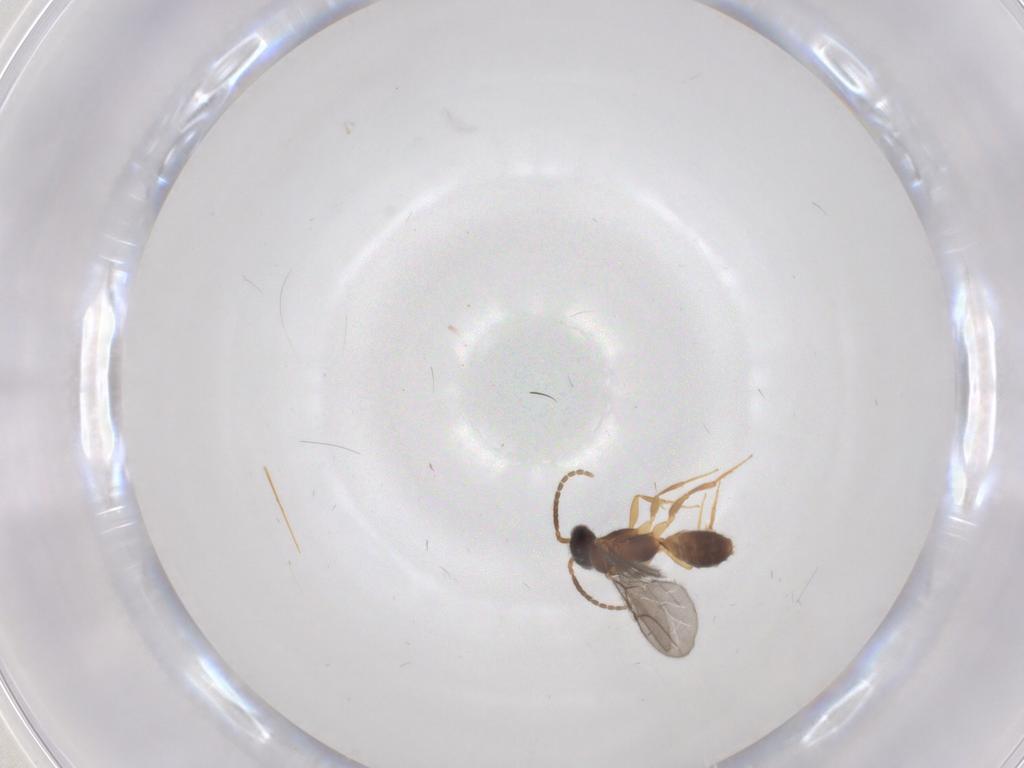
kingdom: Animalia
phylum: Arthropoda
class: Insecta
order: Hymenoptera
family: Bethylidae
